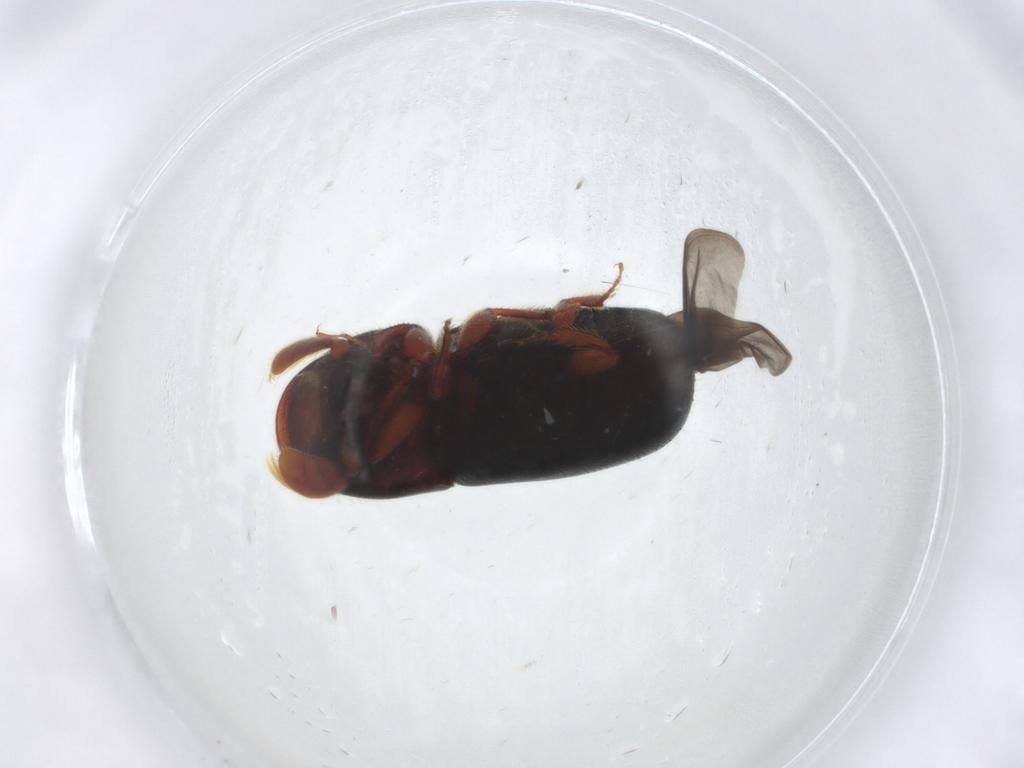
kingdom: Animalia
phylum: Arthropoda
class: Insecta
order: Coleoptera
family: Curculionidae
